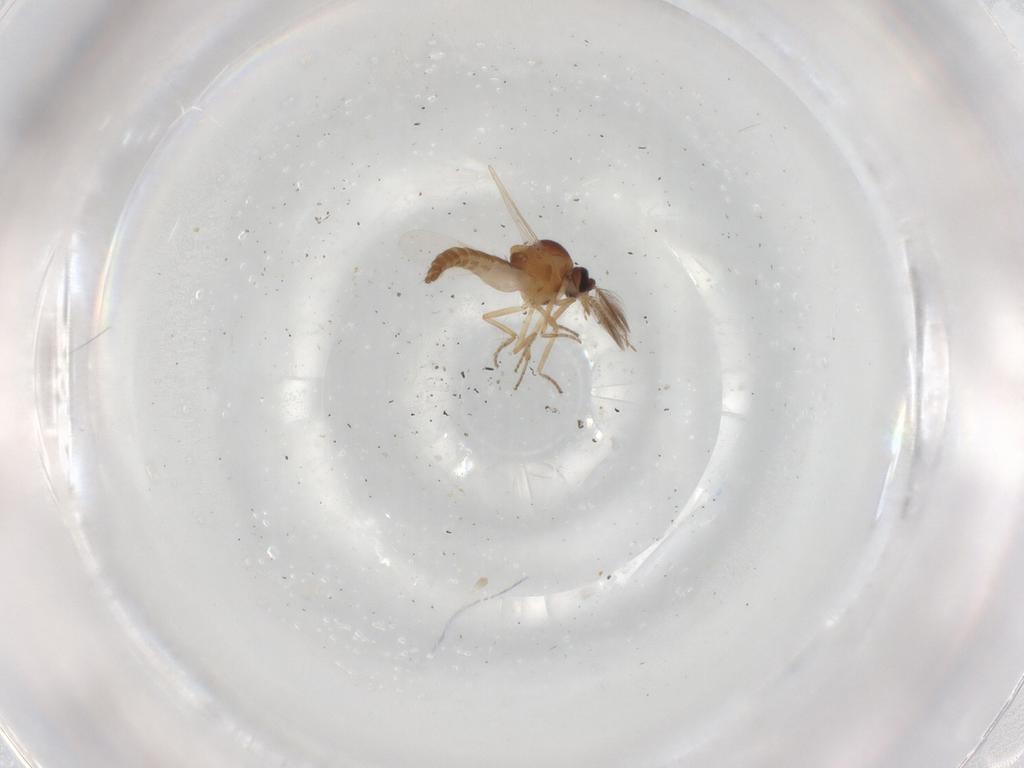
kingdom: Animalia
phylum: Arthropoda
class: Insecta
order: Diptera
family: Ceratopogonidae
